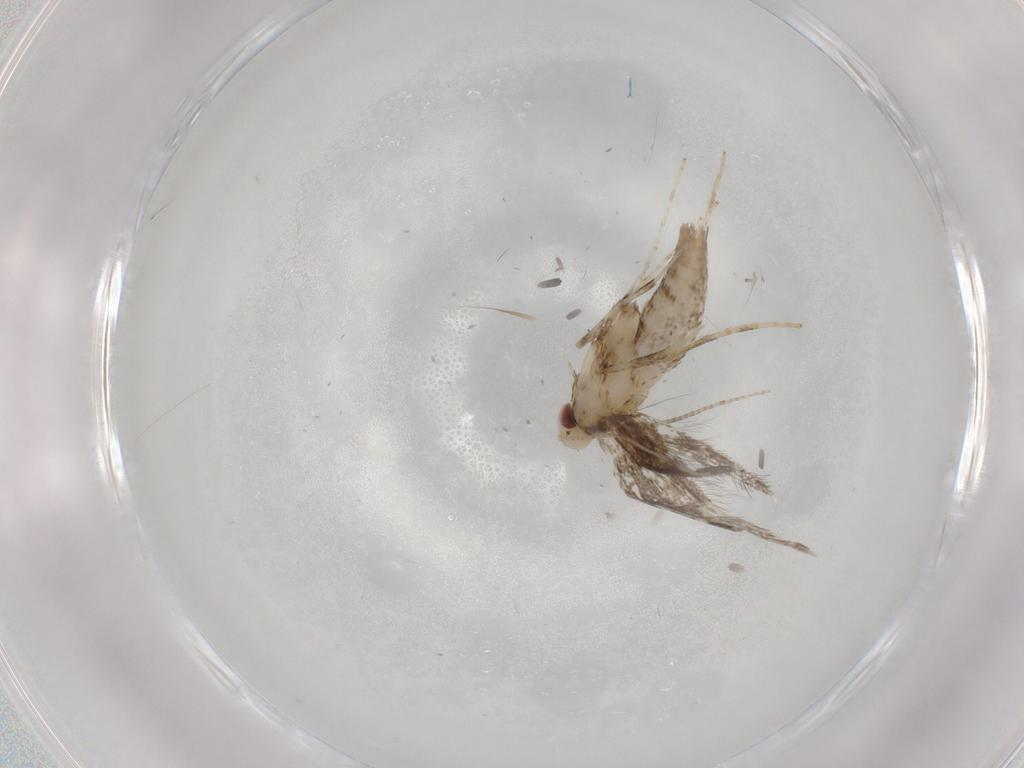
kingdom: Animalia
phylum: Arthropoda
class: Insecta
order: Lepidoptera
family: Gracillariidae
